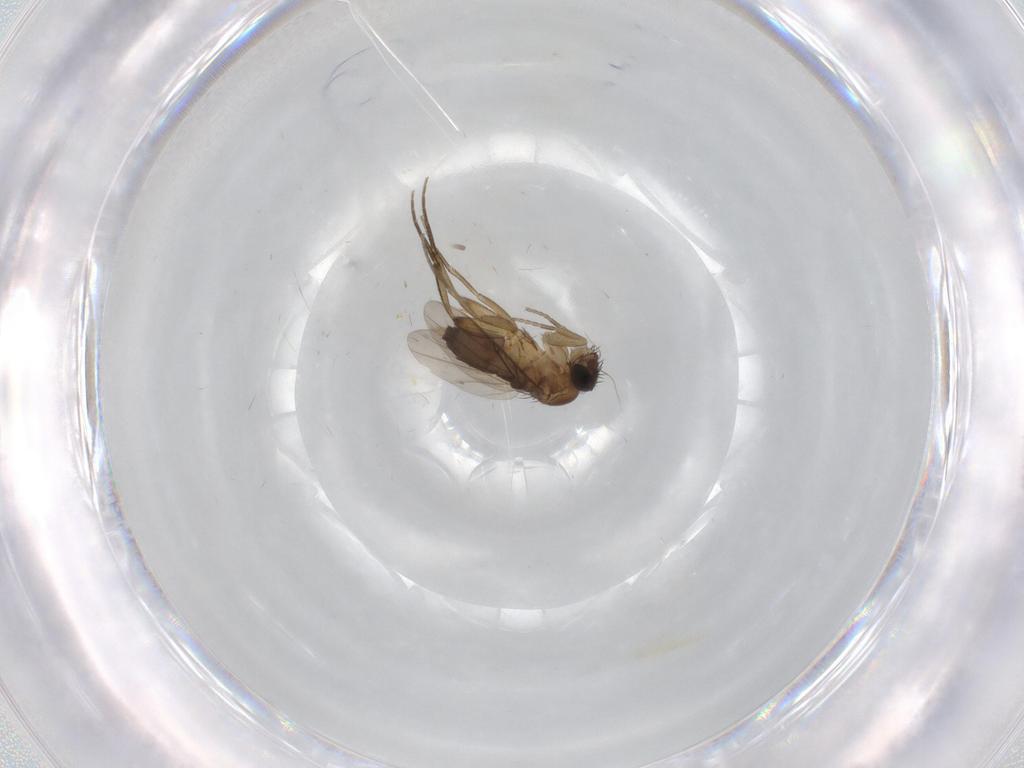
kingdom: Animalia
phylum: Arthropoda
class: Insecta
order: Diptera
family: Phoridae
